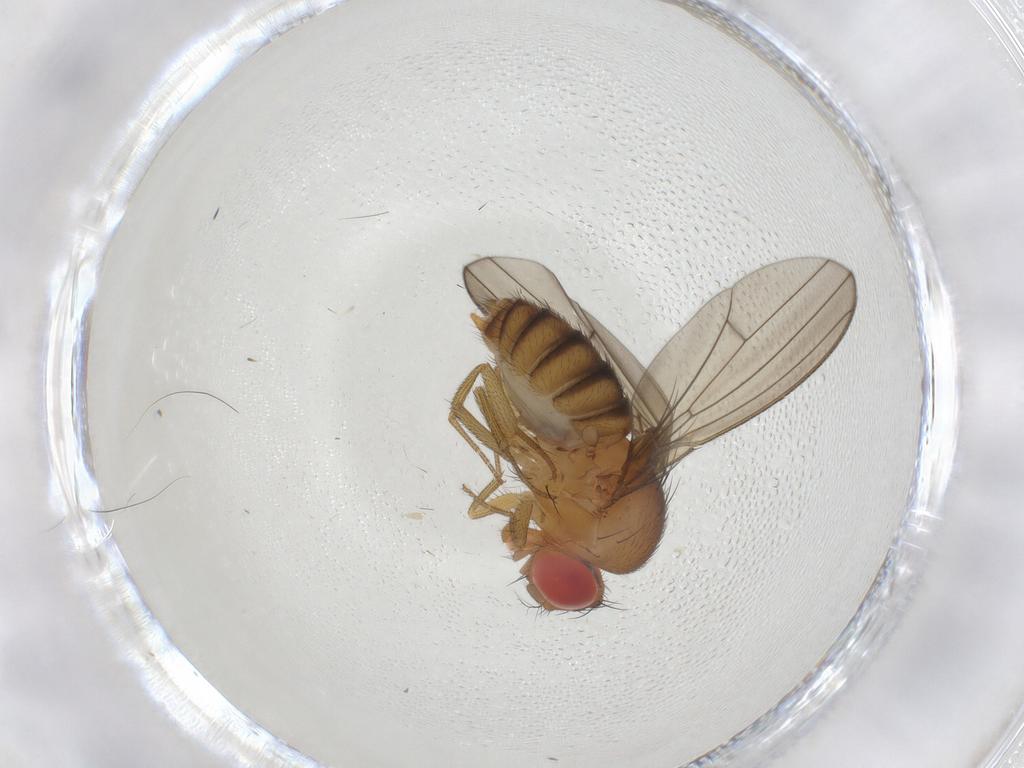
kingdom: Animalia
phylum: Arthropoda
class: Insecta
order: Diptera
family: Drosophilidae
